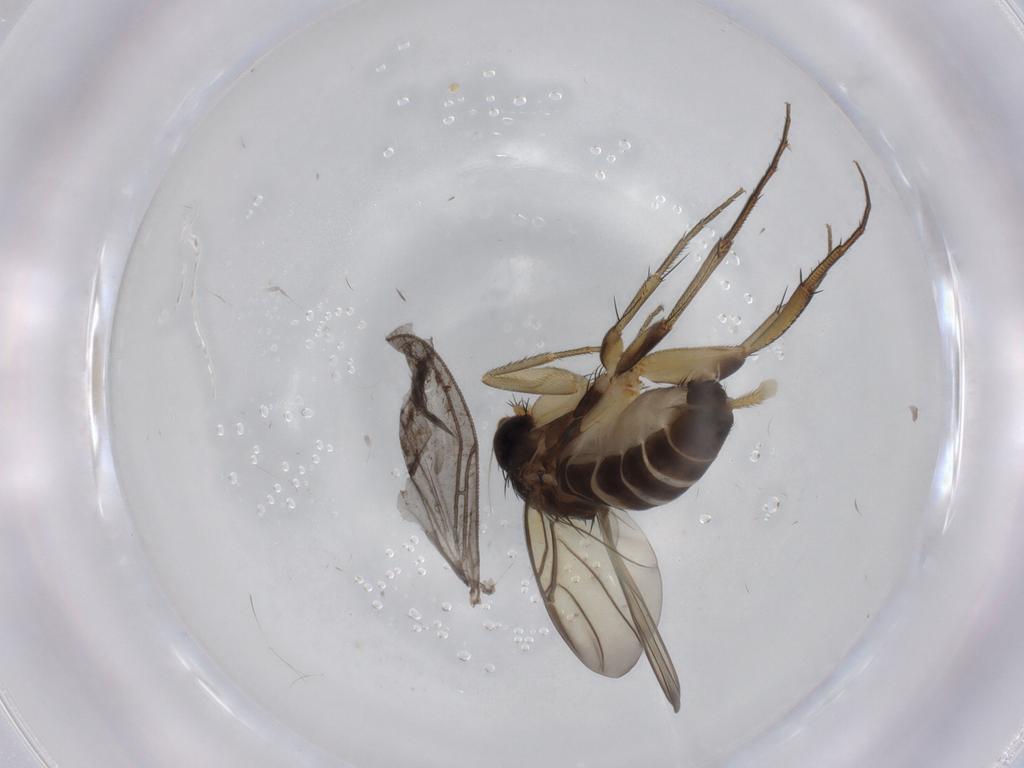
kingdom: Animalia
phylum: Arthropoda
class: Insecta
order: Diptera
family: Phoridae
